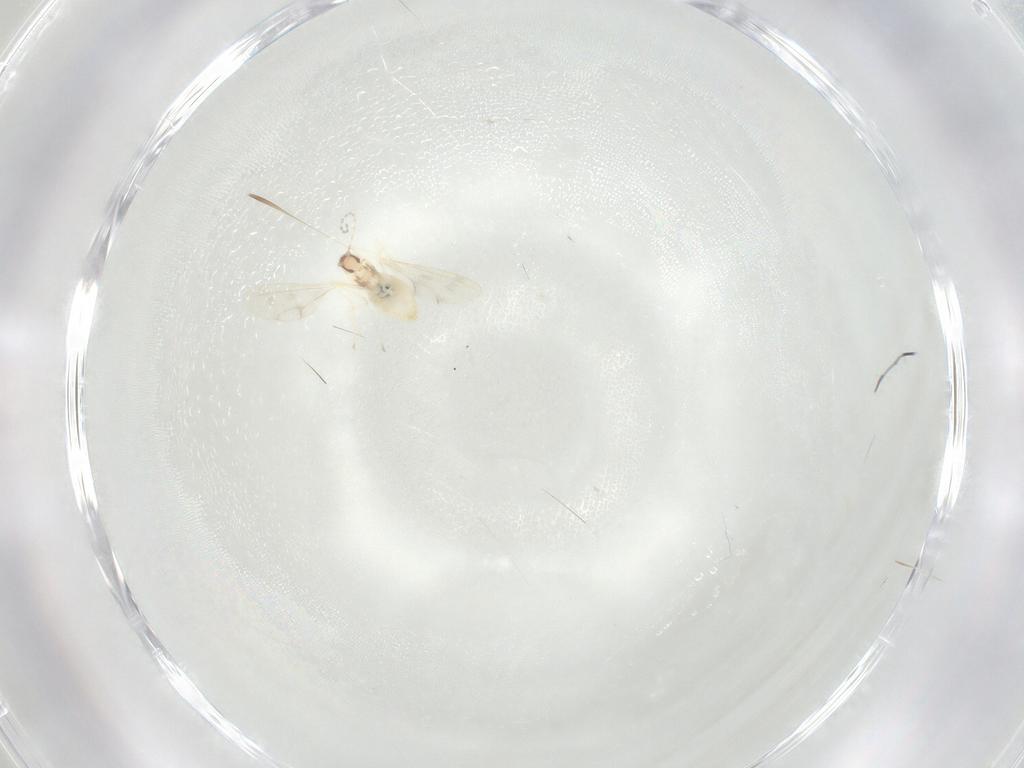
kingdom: Animalia
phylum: Arthropoda
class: Insecta
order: Diptera
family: Cecidomyiidae
